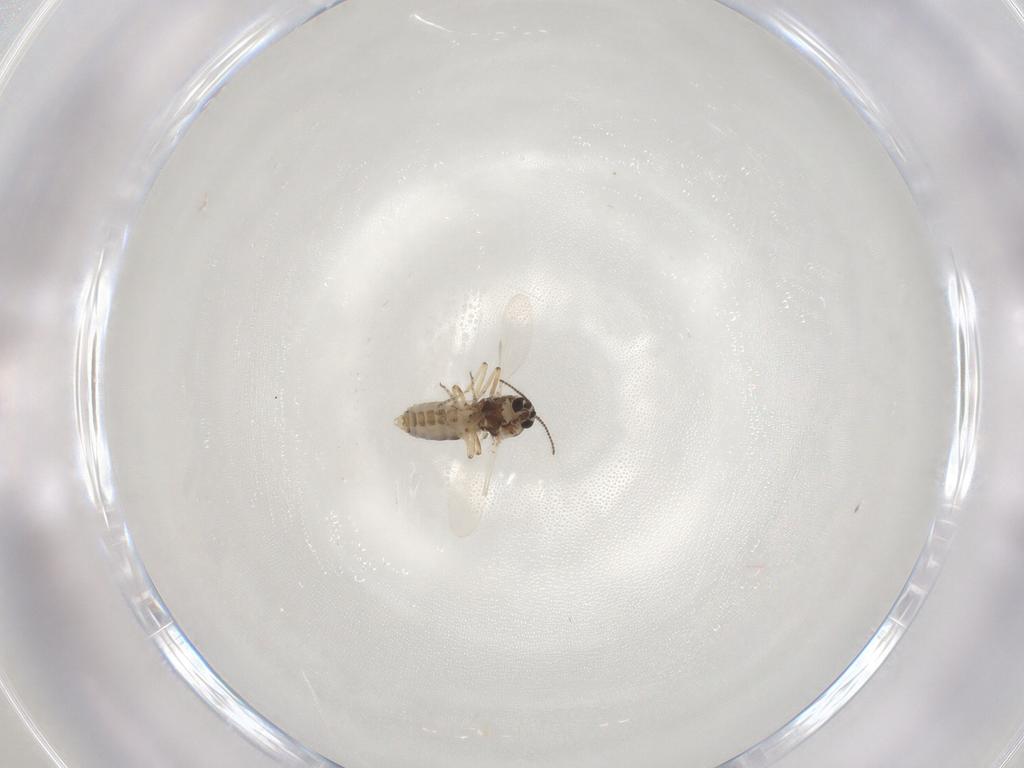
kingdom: Animalia
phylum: Arthropoda
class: Insecta
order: Diptera
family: Ceratopogonidae
